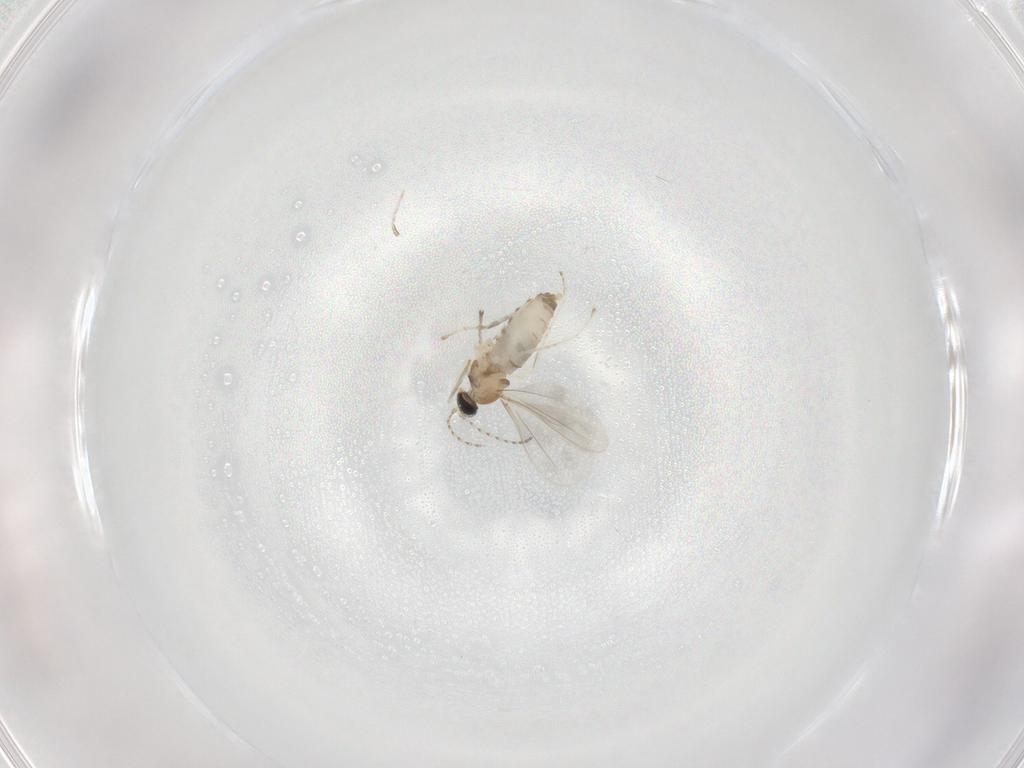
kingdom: Animalia
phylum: Arthropoda
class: Insecta
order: Diptera
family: Cecidomyiidae
